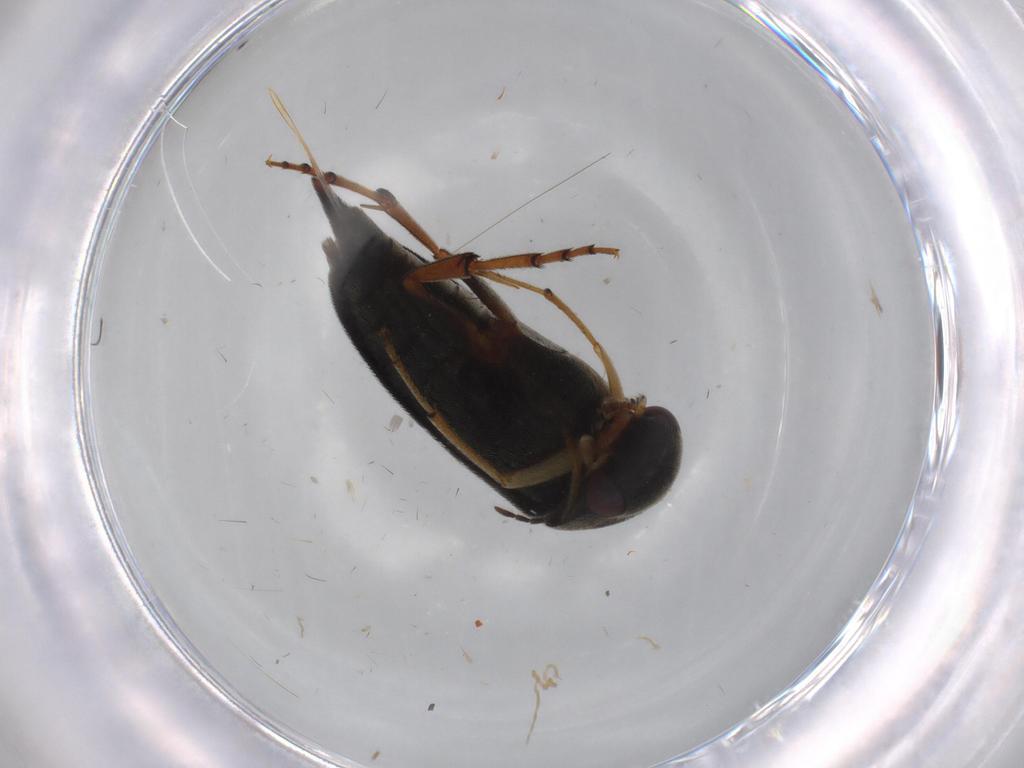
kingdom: Animalia
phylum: Arthropoda
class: Insecta
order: Coleoptera
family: Mordellidae
